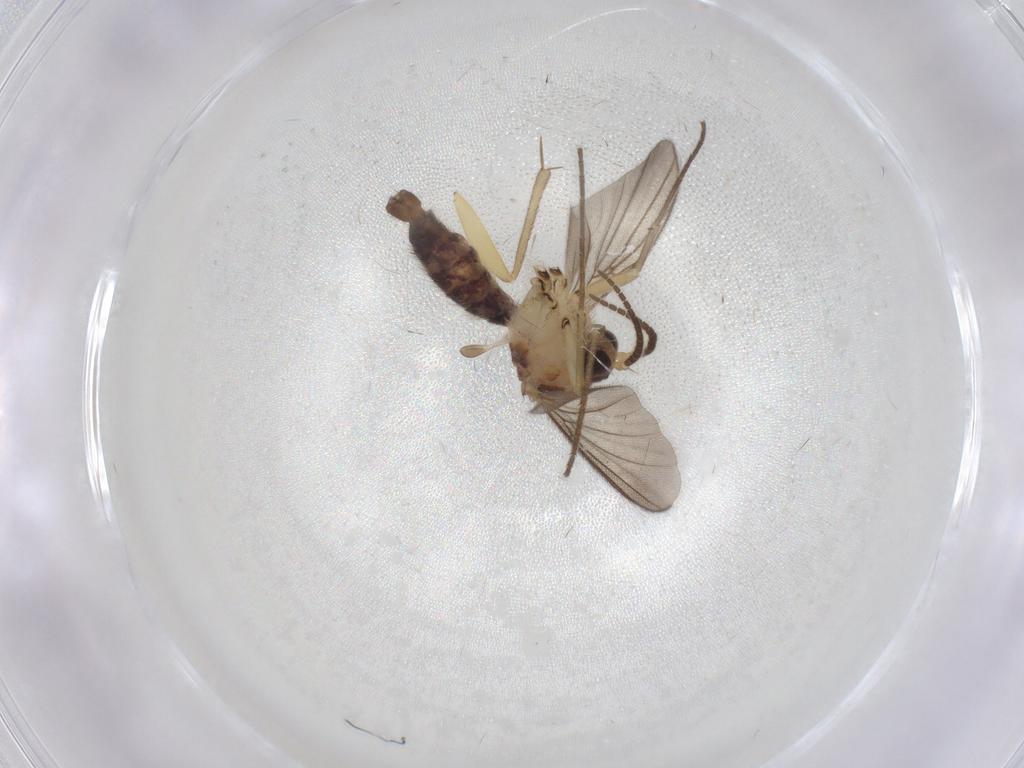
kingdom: Animalia
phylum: Arthropoda
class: Insecta
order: Diptera
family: Mycetophilidae
